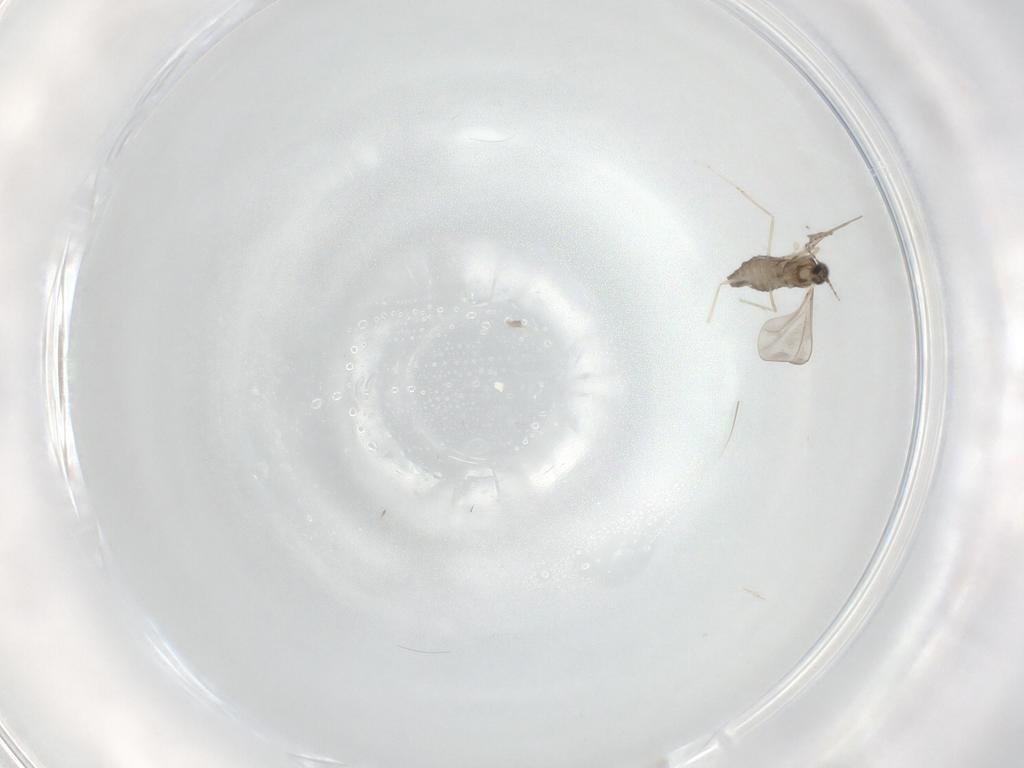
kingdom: Animalia
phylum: Arthropoda
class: Insecta
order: Diptera
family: Cecidomyiidae
